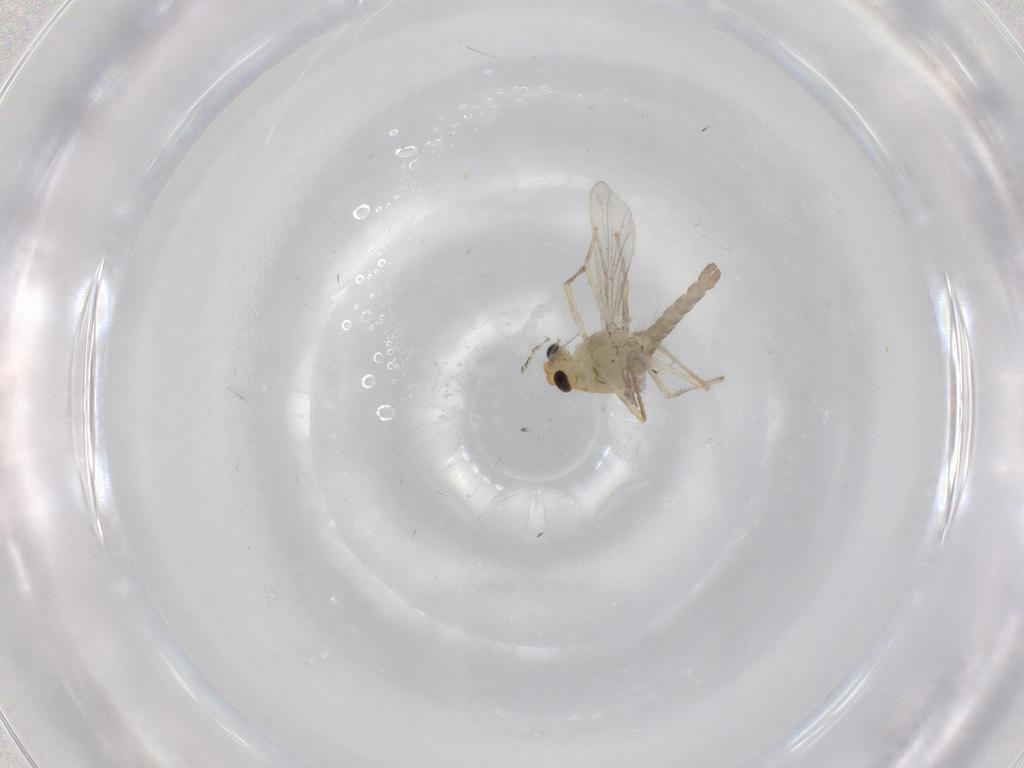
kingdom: Animalia
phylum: Arthropoda
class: Insecta
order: Diptera
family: Chironomidae
